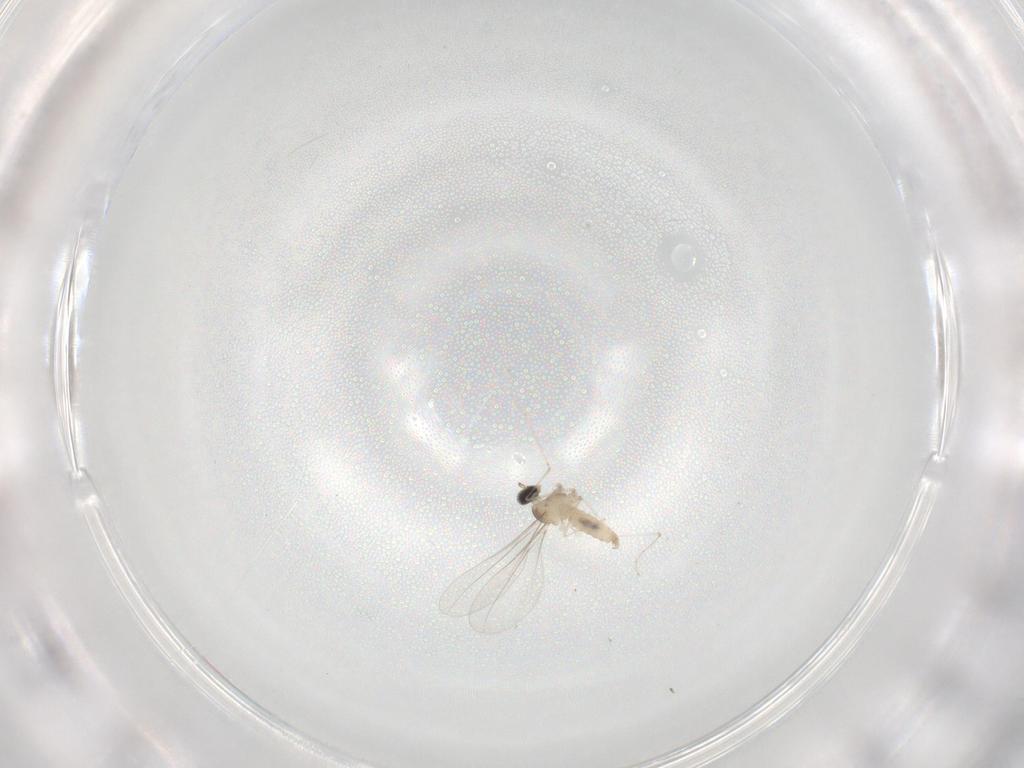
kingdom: Animalia
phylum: Arthropoda
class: Insecta
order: Diptera
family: Cecidomyiidae
